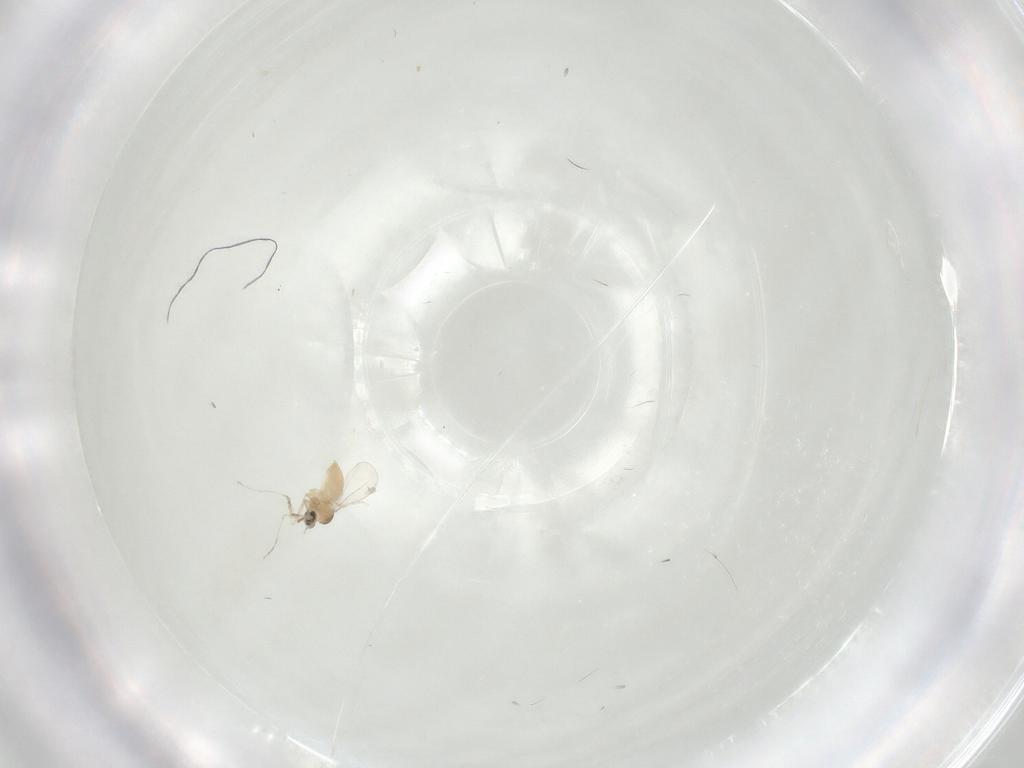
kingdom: Animalia
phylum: Arthropoda
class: Insecta
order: Diptera
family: Cecidomyiidae
